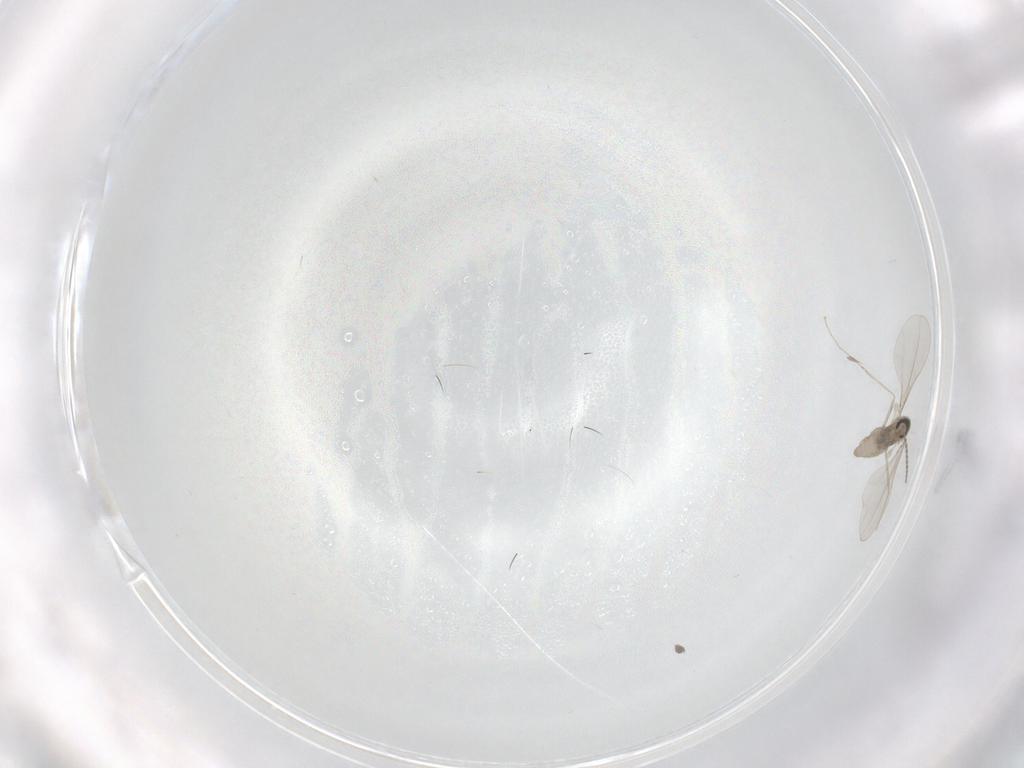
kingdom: Animalia
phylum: Arthropoda
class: Insecta
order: Diptera
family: Cecidomyiidae
